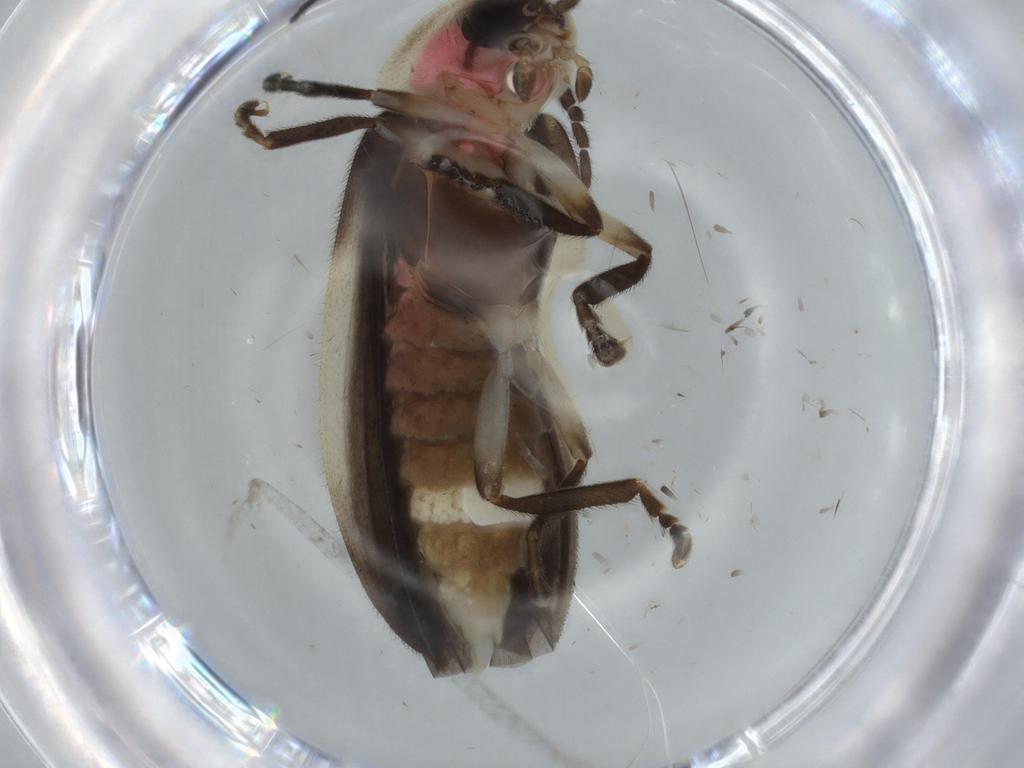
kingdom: Animalia
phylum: Arthropoda
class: Insecta
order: Coleoptera
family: Lampyridae
